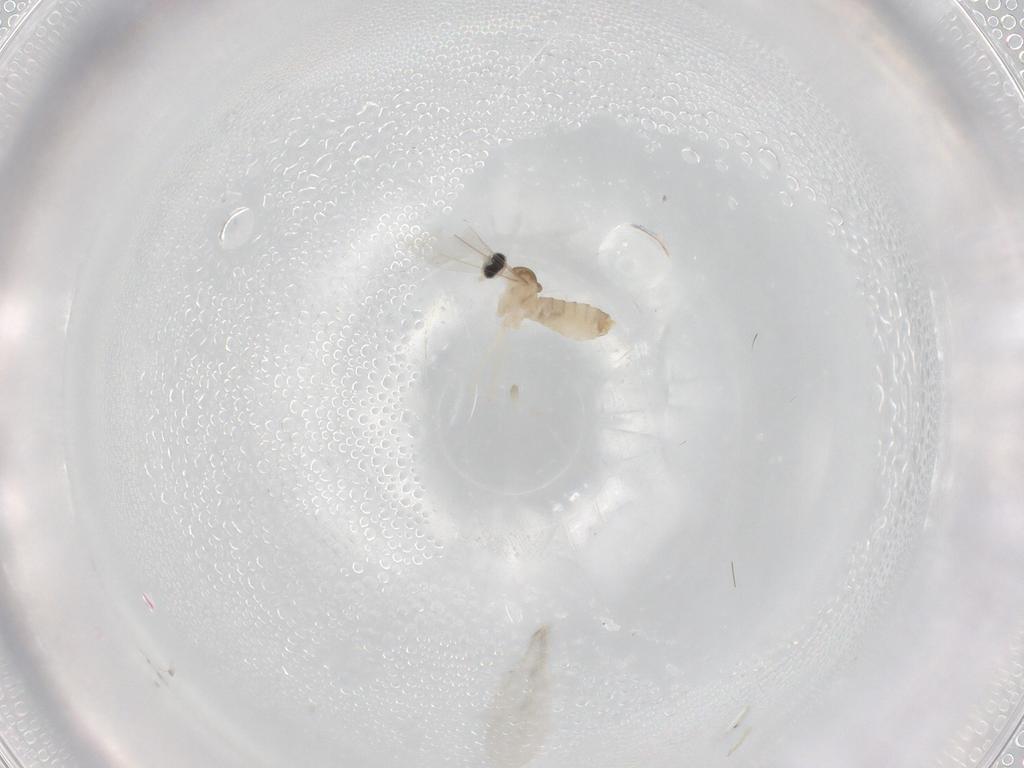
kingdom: Animalia
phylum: Arthropoda
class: Insecta
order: Diptera
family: Cecidomyiidae
